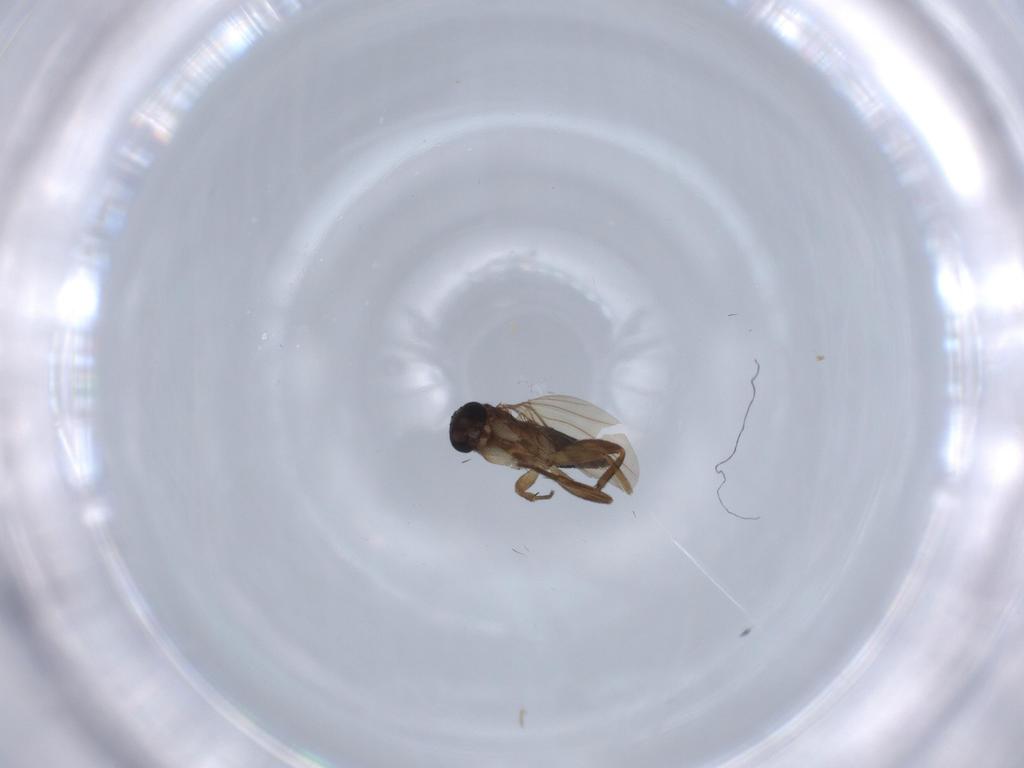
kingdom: Animalia
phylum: Arthropoda
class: Insecta
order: Diptera
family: Phoridae
